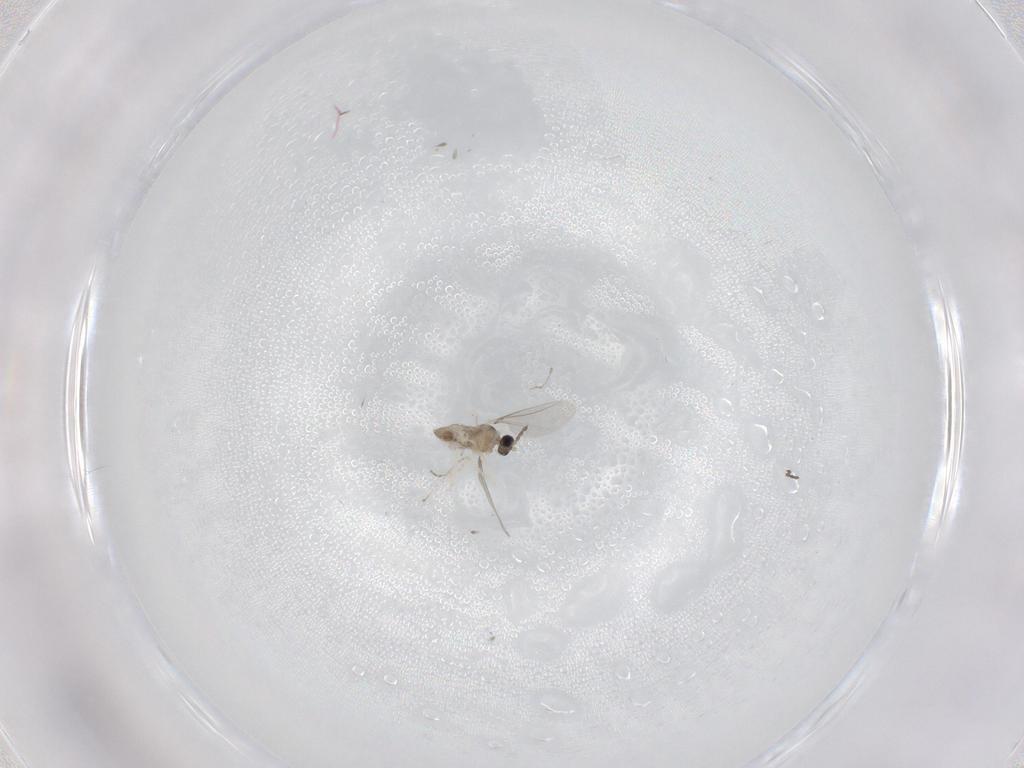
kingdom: Animalia
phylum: Arthropoda
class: Insecta
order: Diptera
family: Cecidomyiidae
